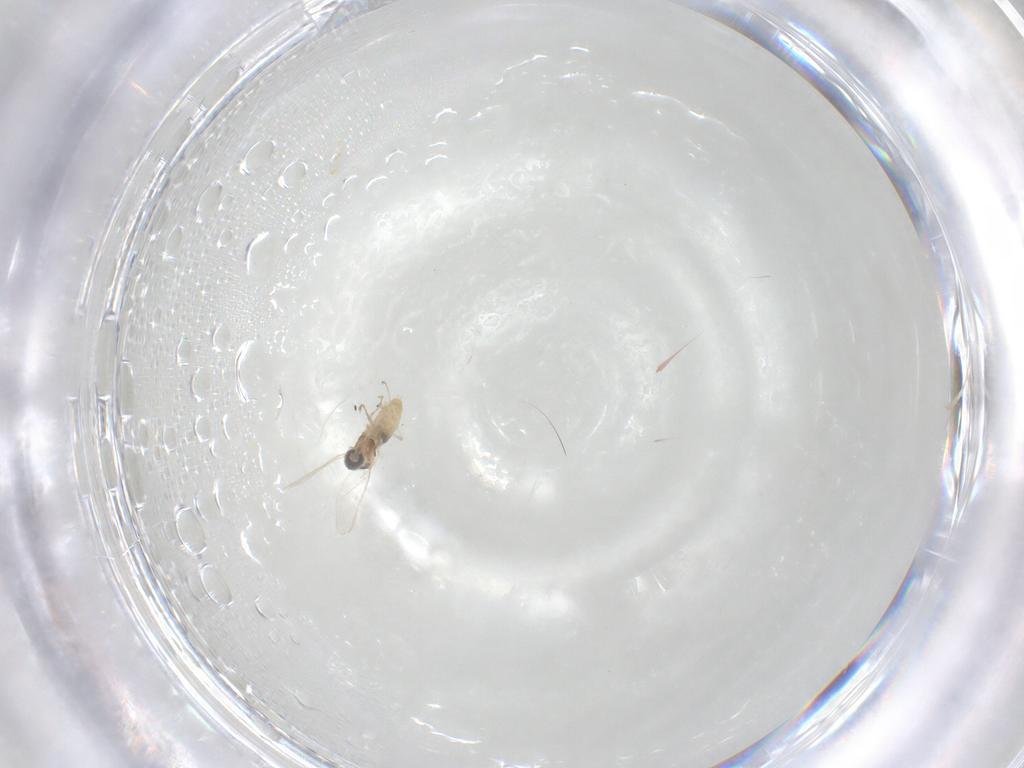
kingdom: Animalia
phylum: Arthropoda
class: Insecta
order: Diptera
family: Cecidomyiidae
